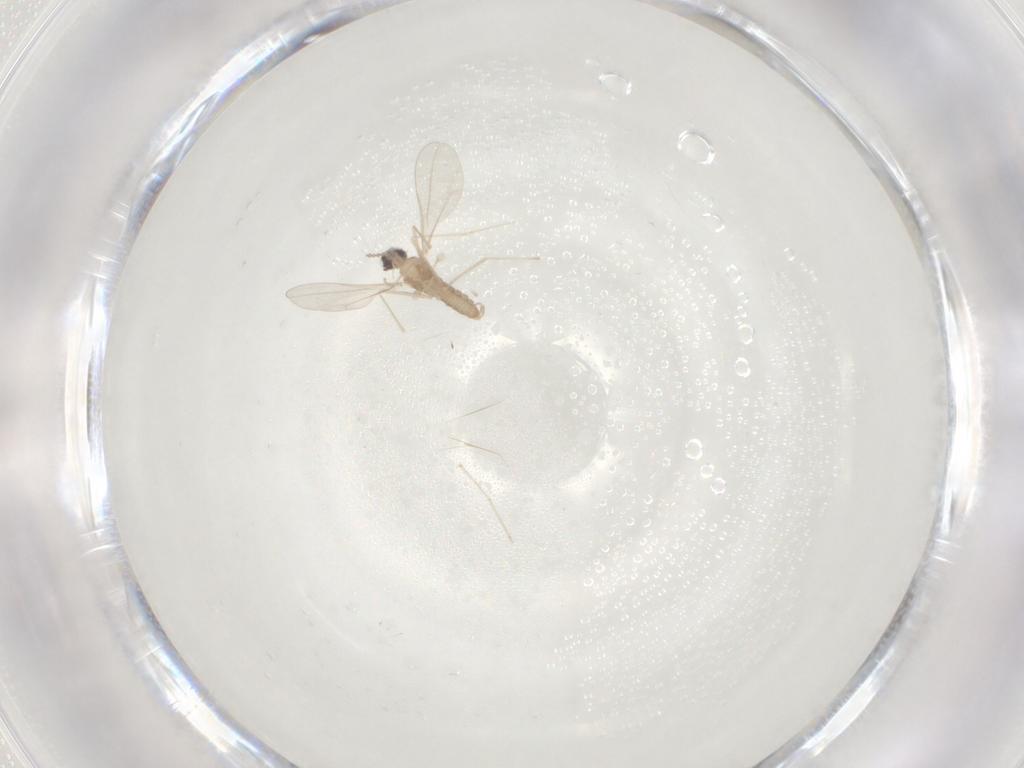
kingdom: Animalia
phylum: Arthropoda
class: Insecta
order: Diptera
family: Cecidomyiidae
